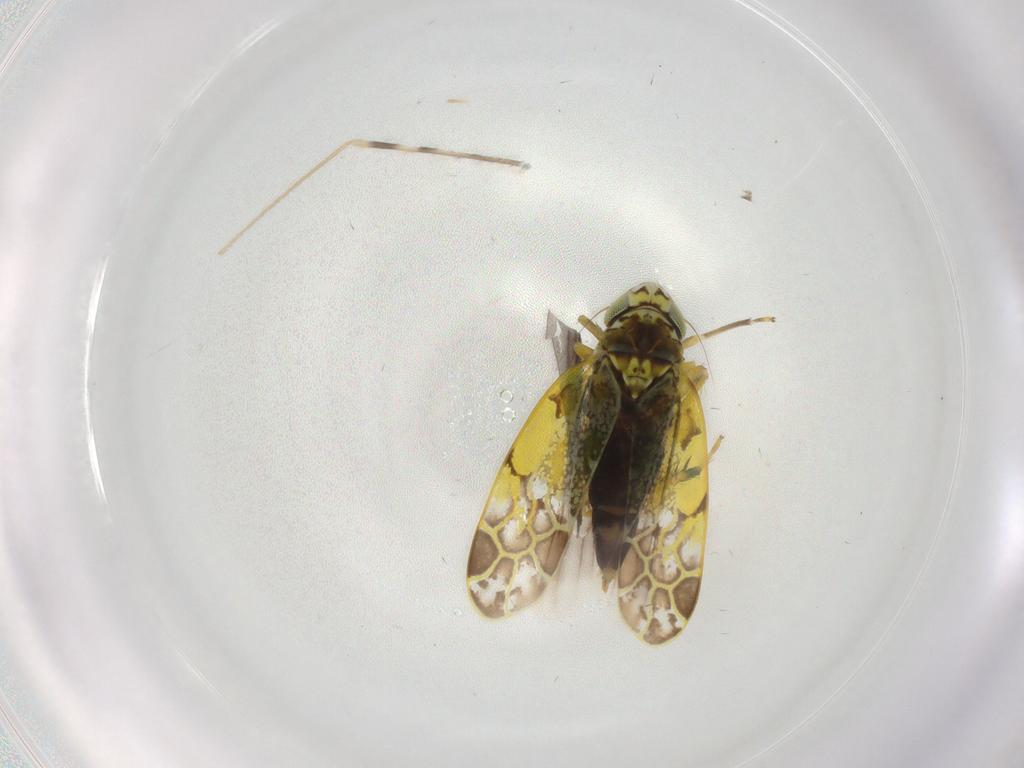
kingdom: Animalia
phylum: Arthropoda
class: Insecta
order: Hemiptera
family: Cicadellidae
